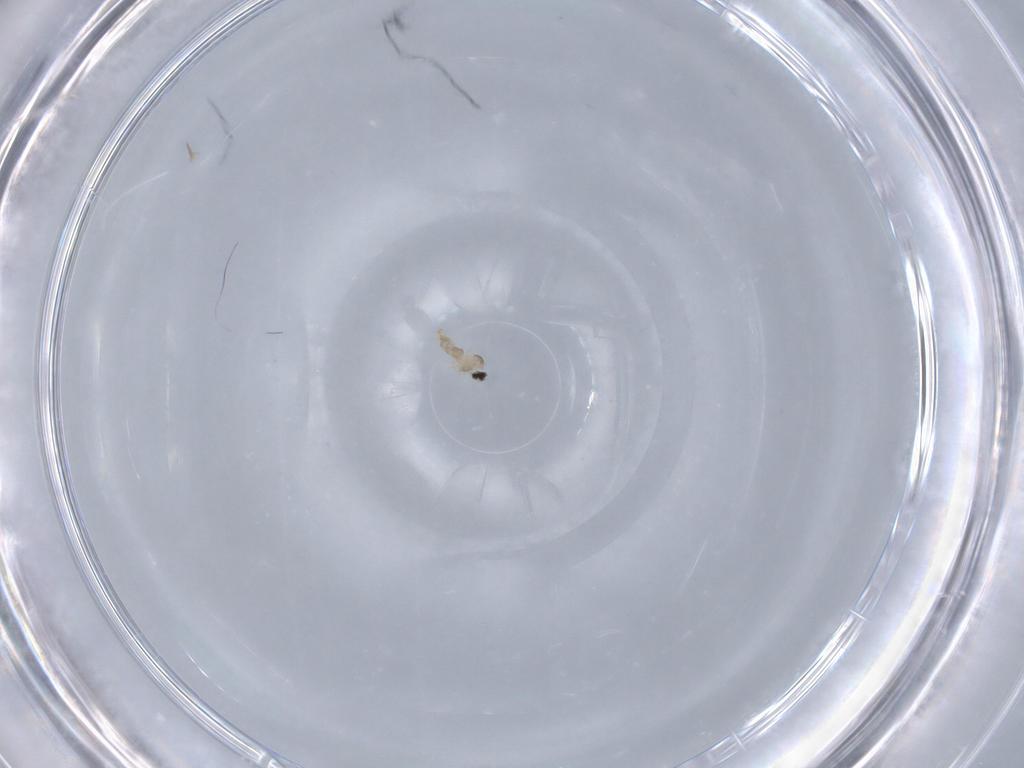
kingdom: Animalia
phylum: Arthropoda
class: Insecta
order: Diptera
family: Cecidomyiidae
